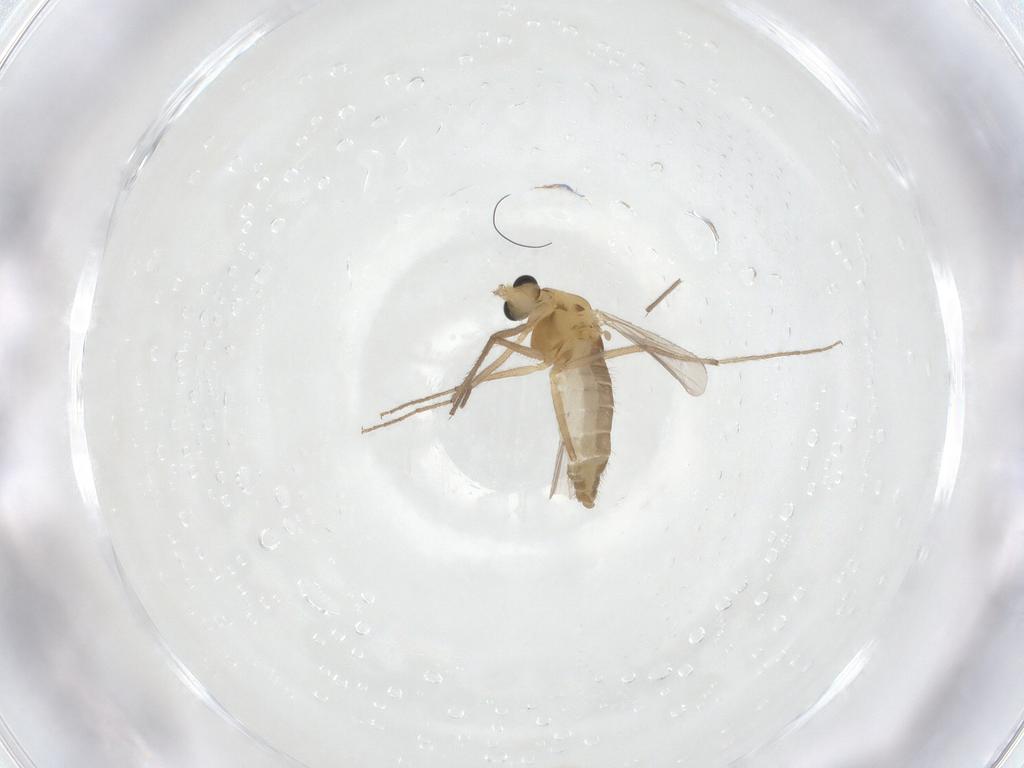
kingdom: Animalia
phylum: Arthropoda
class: Insecta
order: Diptera
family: Chironomidae
